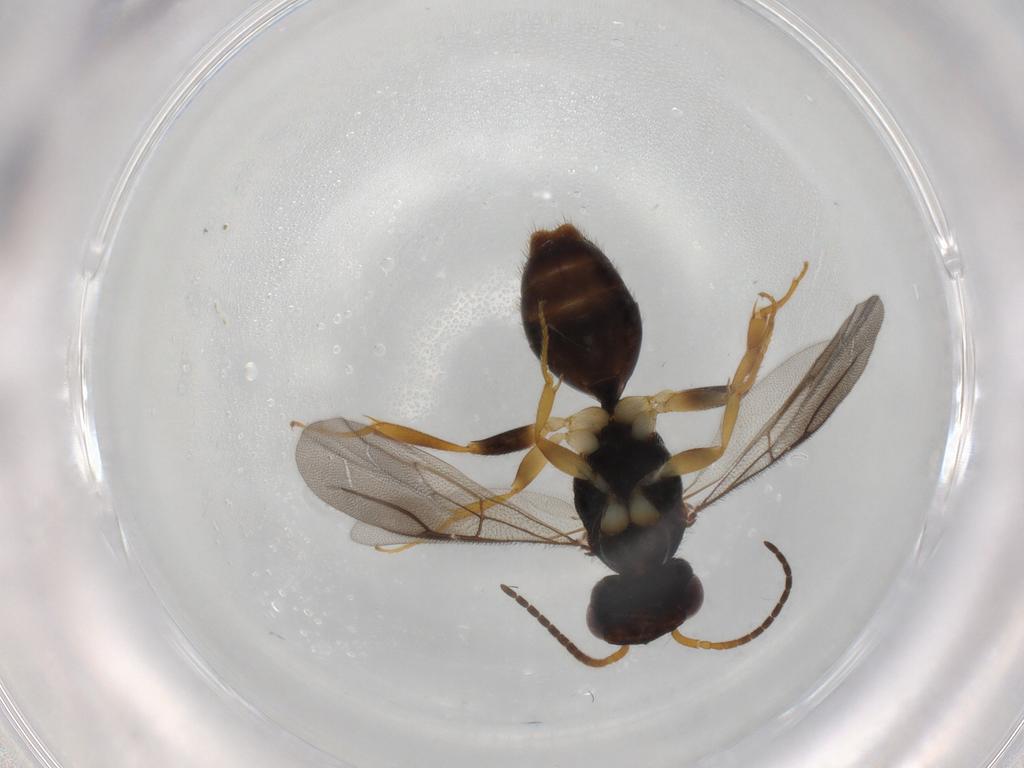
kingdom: Animalia
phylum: Arthropoda
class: Insecta
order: Hymenoptera
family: Bethylidae
